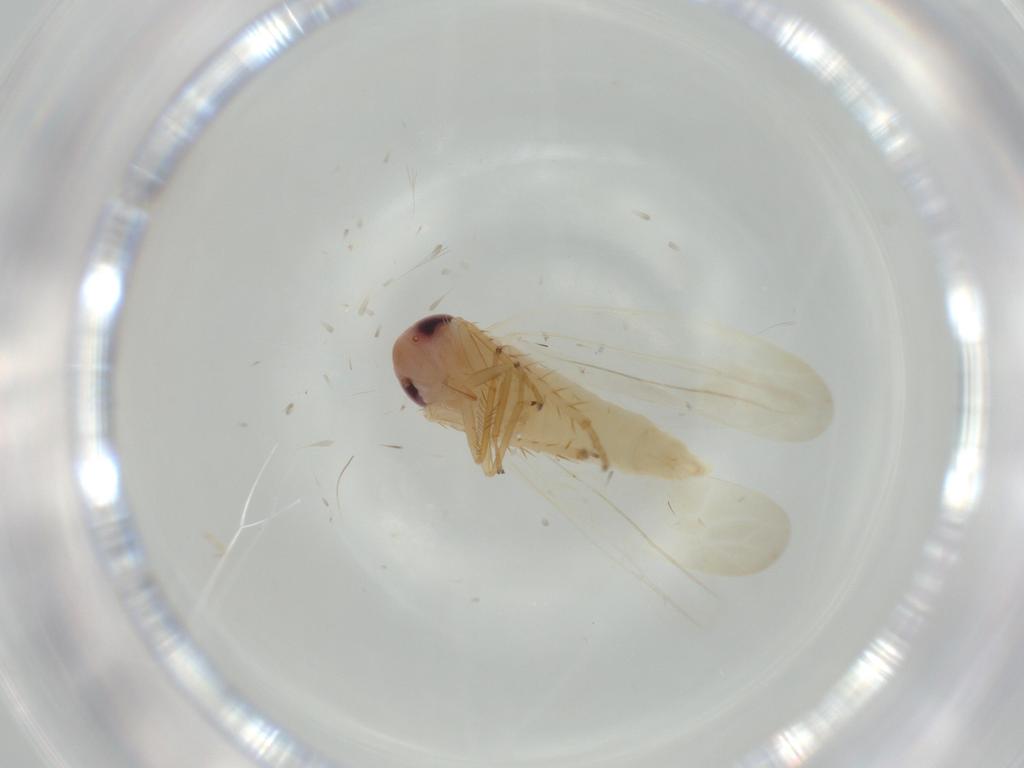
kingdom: Animalia
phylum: Arthropoda
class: Insecta
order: Hemiptera
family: Cicadellidae
